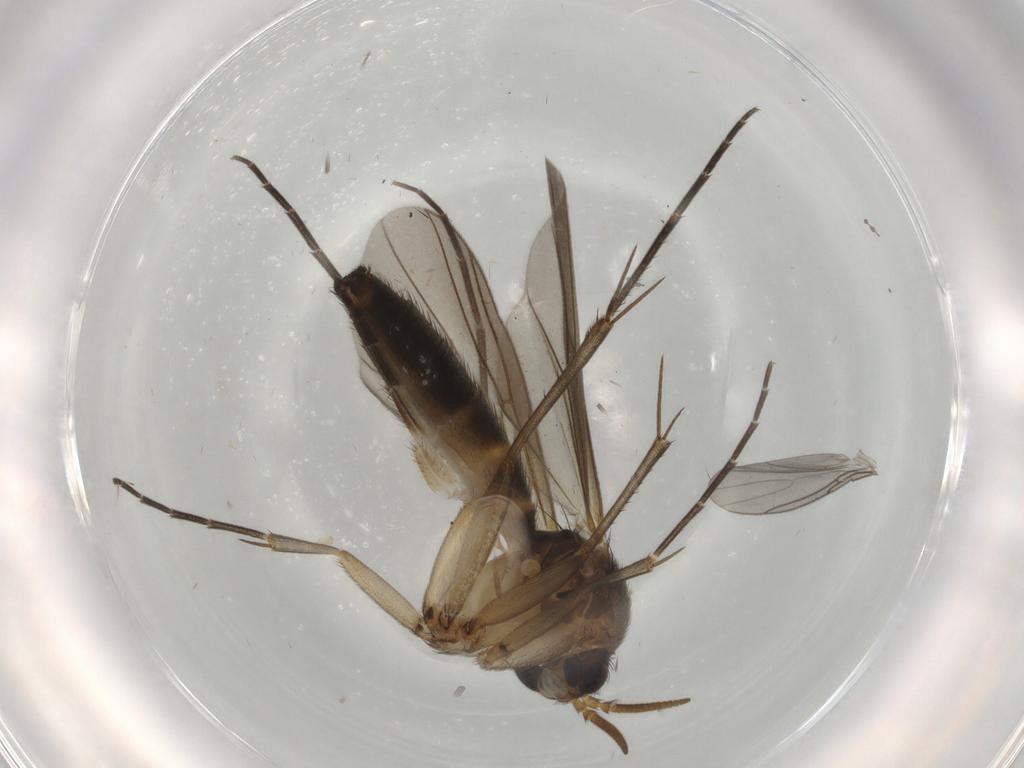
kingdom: Animalia
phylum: Arthropoda
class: Insecta
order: Diptera
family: Mycetophilidae
